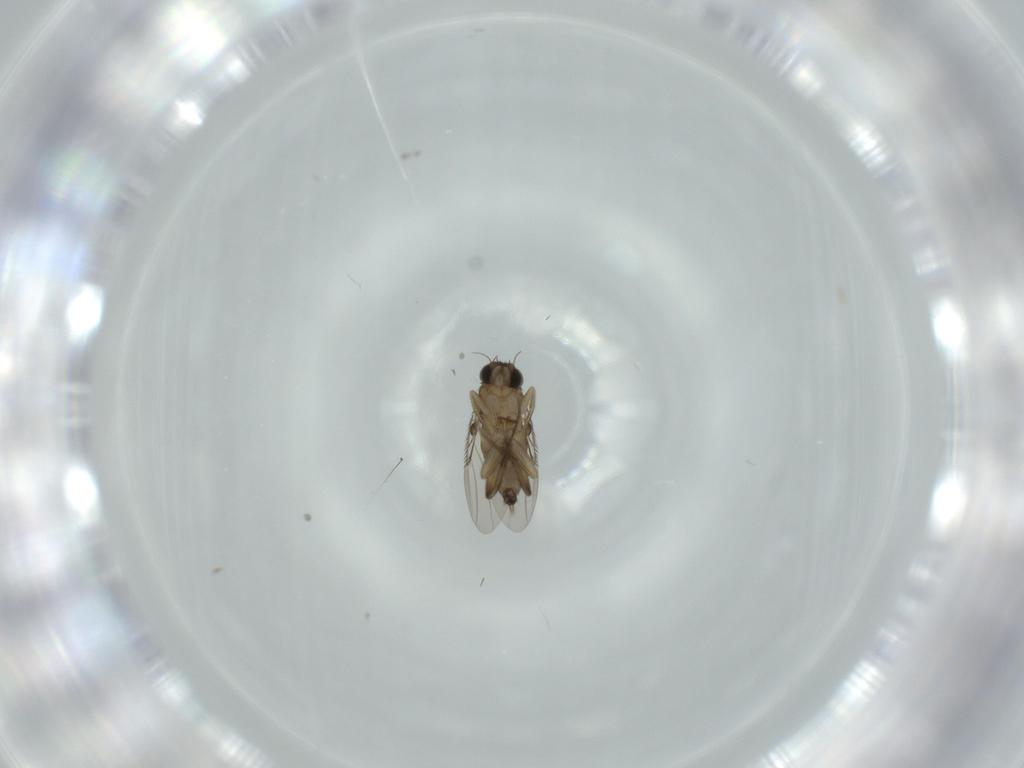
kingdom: Animalia
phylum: Arthropoda
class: Insecta
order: Diptera
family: Phoridae
